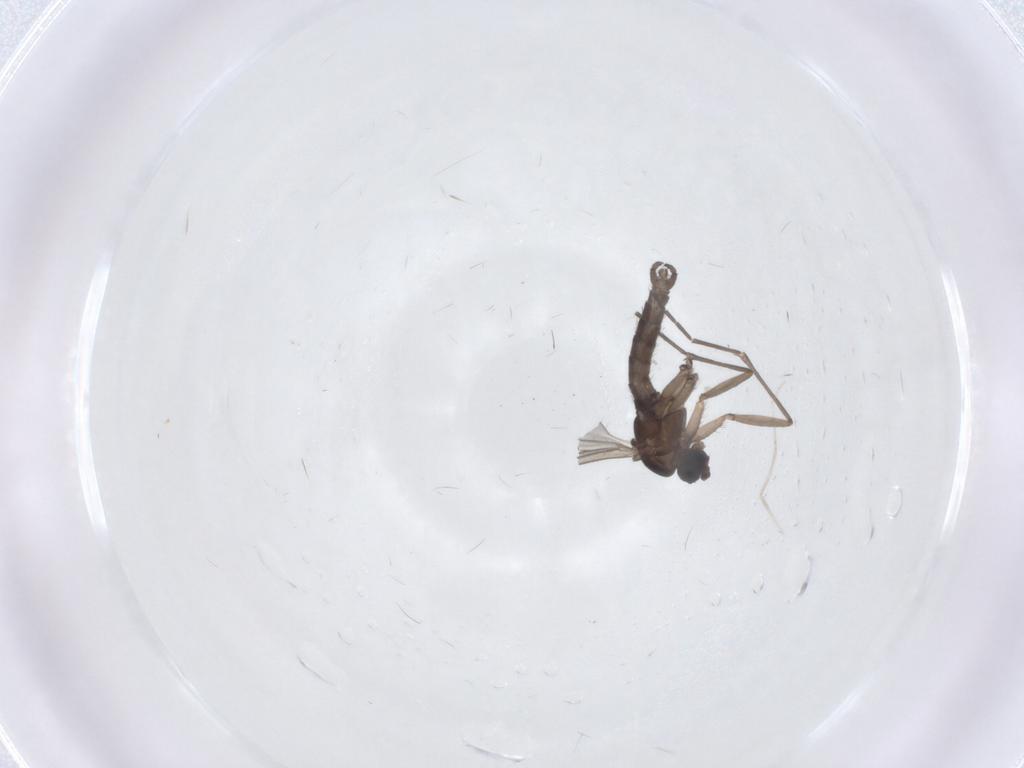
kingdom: Animalia
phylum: Arthropoda
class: Insecta
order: Diptera
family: Sciaridae
